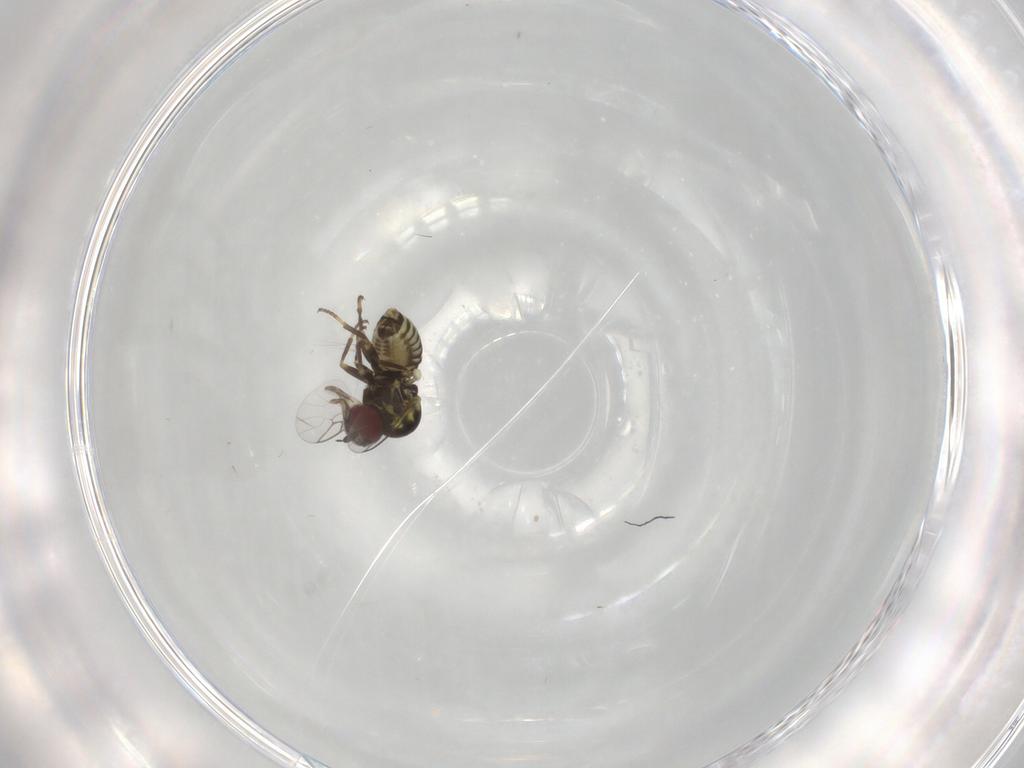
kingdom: Animalia
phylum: Arthropoda
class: Insecta
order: Diptera
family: Mythicomyiidae
